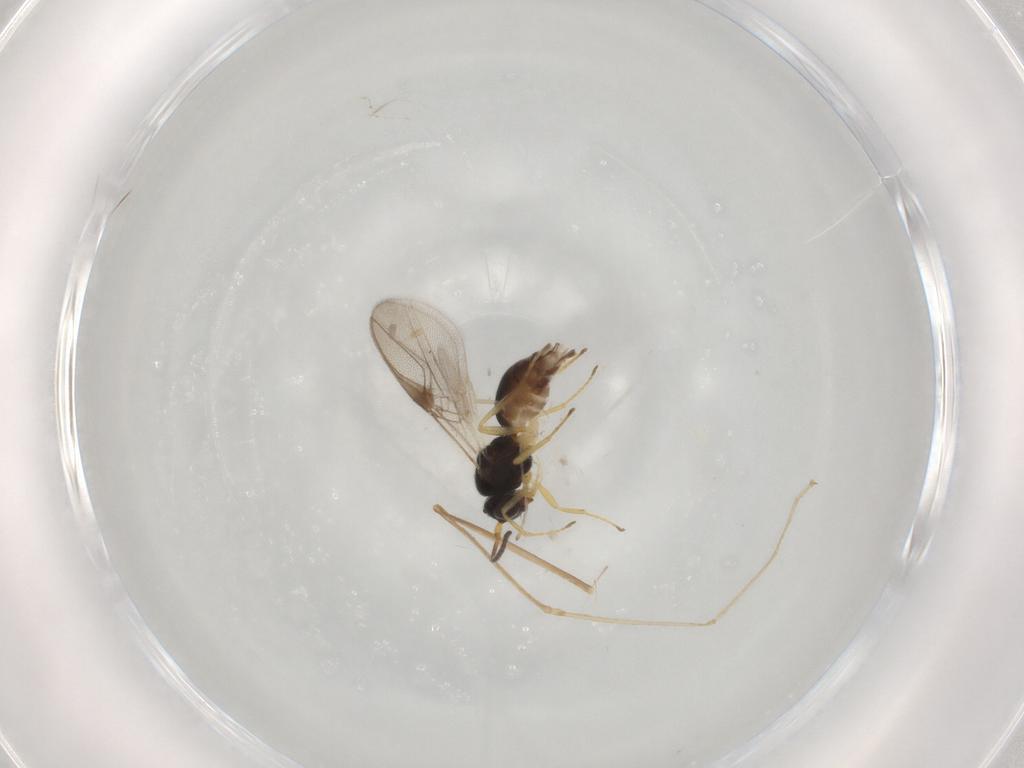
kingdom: Animalia
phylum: Arthropoda
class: Insecta
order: Hymenoptera
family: Braconidae
